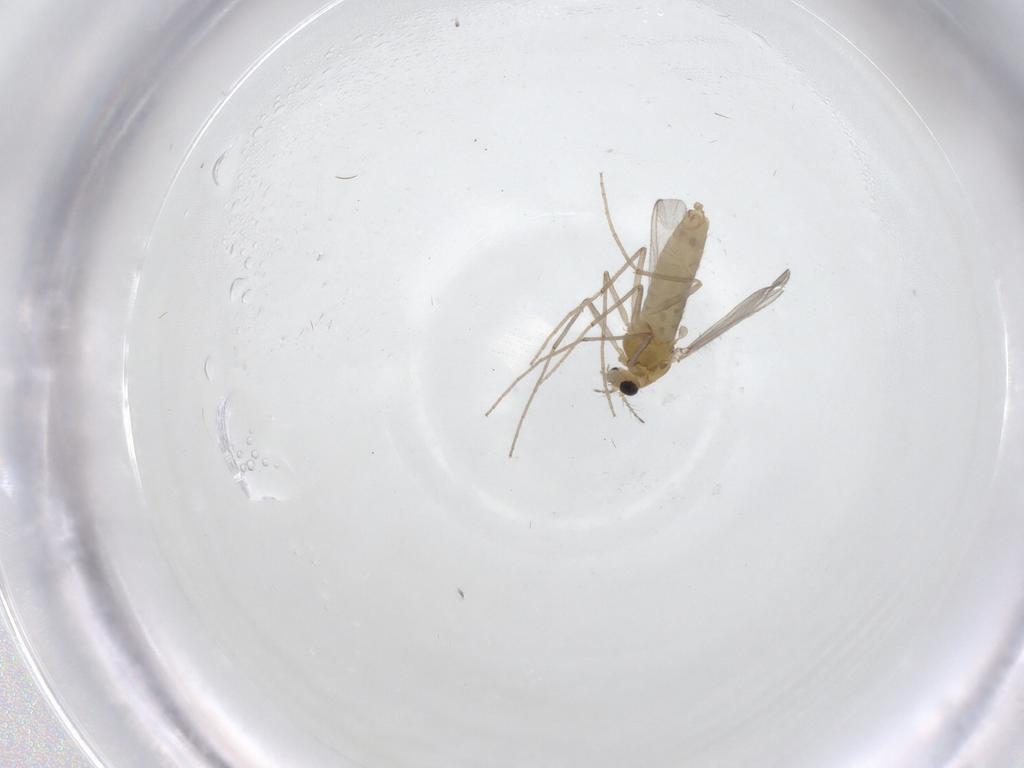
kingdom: Animalia
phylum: Arthropoda
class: Insecta
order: Diptera
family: Chironomidae
